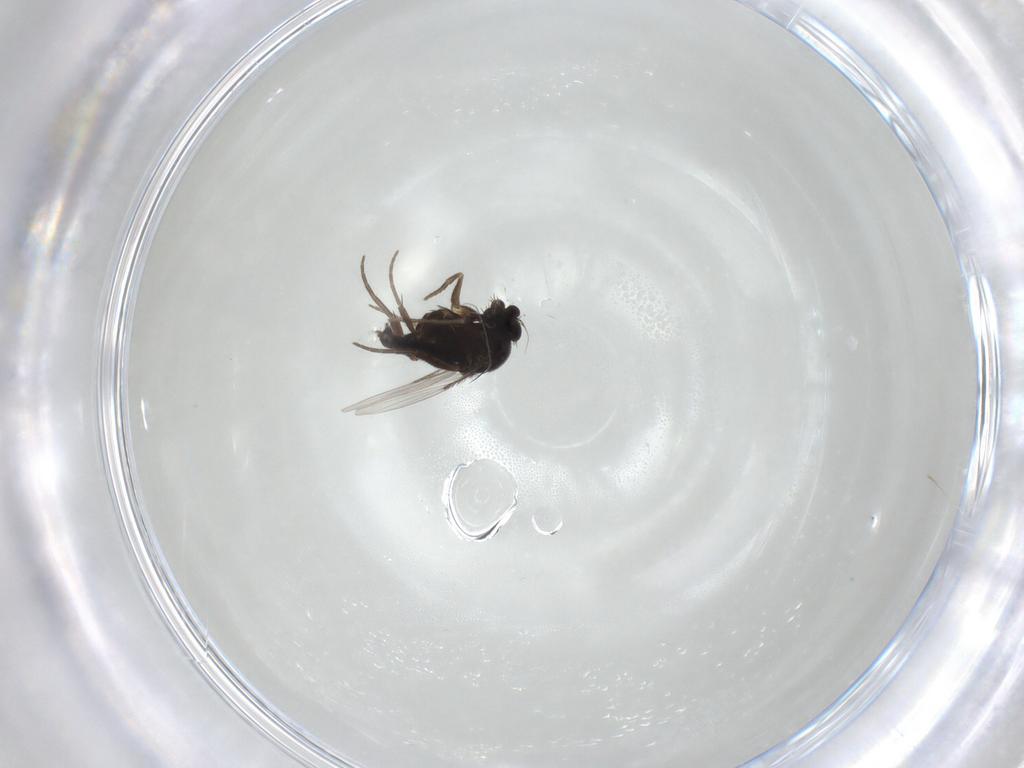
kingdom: Animalia
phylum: Arthropoda
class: Insecta
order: Diptera
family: Phoridae
